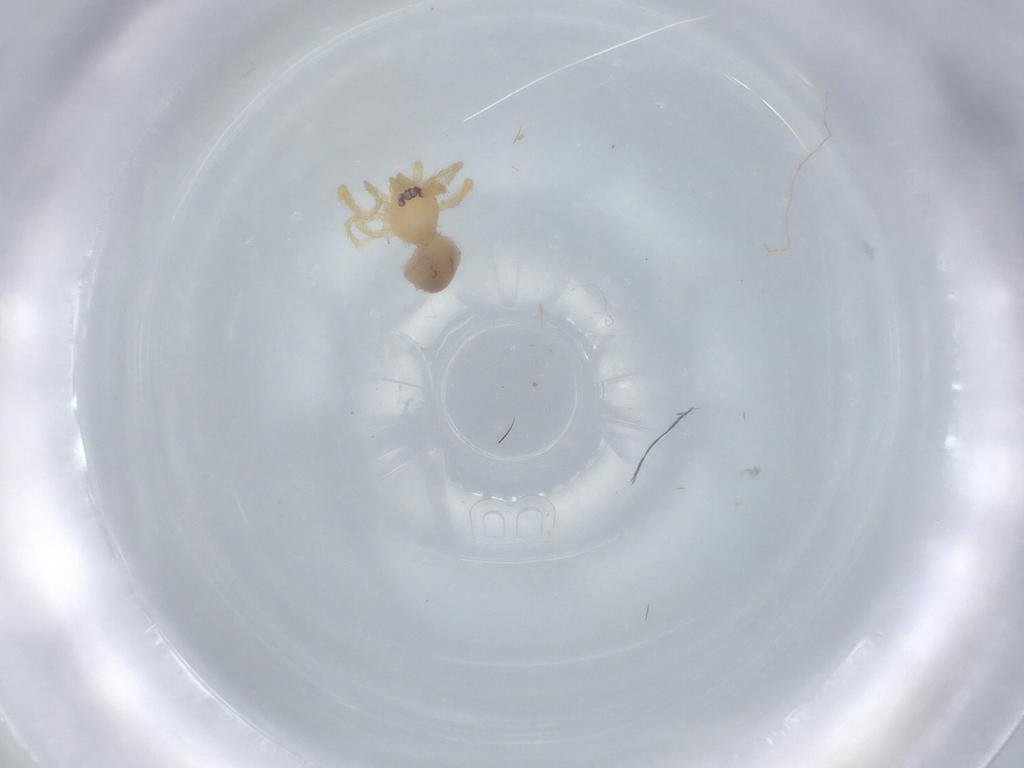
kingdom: Animalia
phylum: Arthropoda
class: Arachnida
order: Araneae
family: Oonopidae
